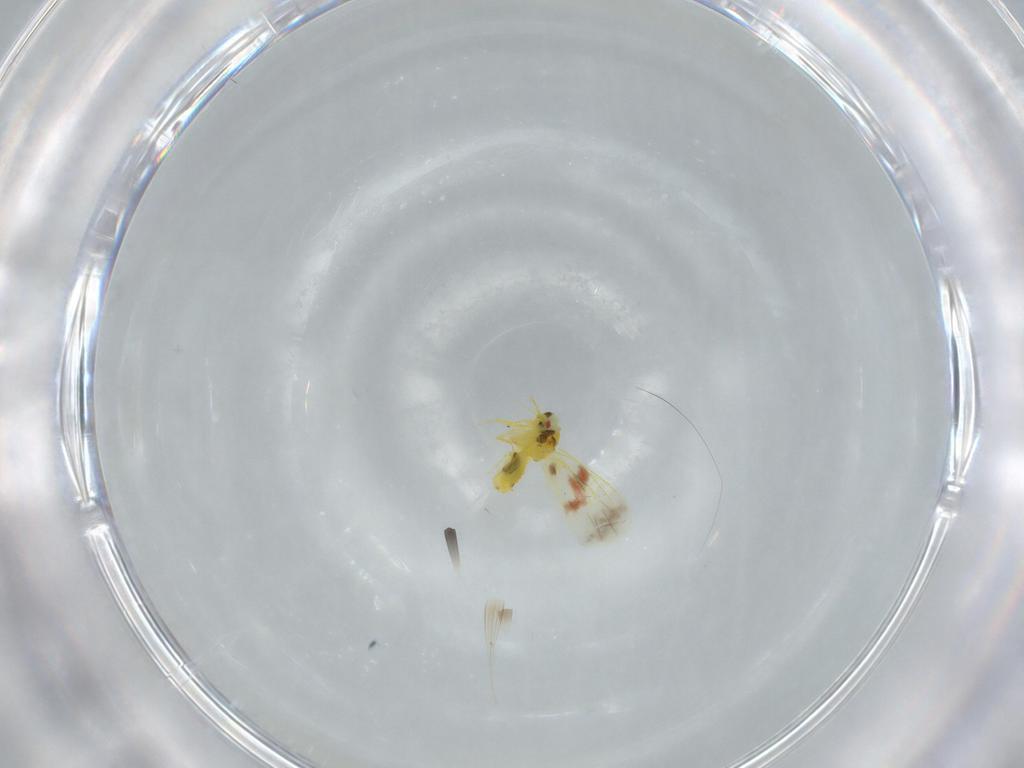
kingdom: Animalia
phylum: Arthropoda
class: Insecta
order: Hemiptera
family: Aleyrodidae
